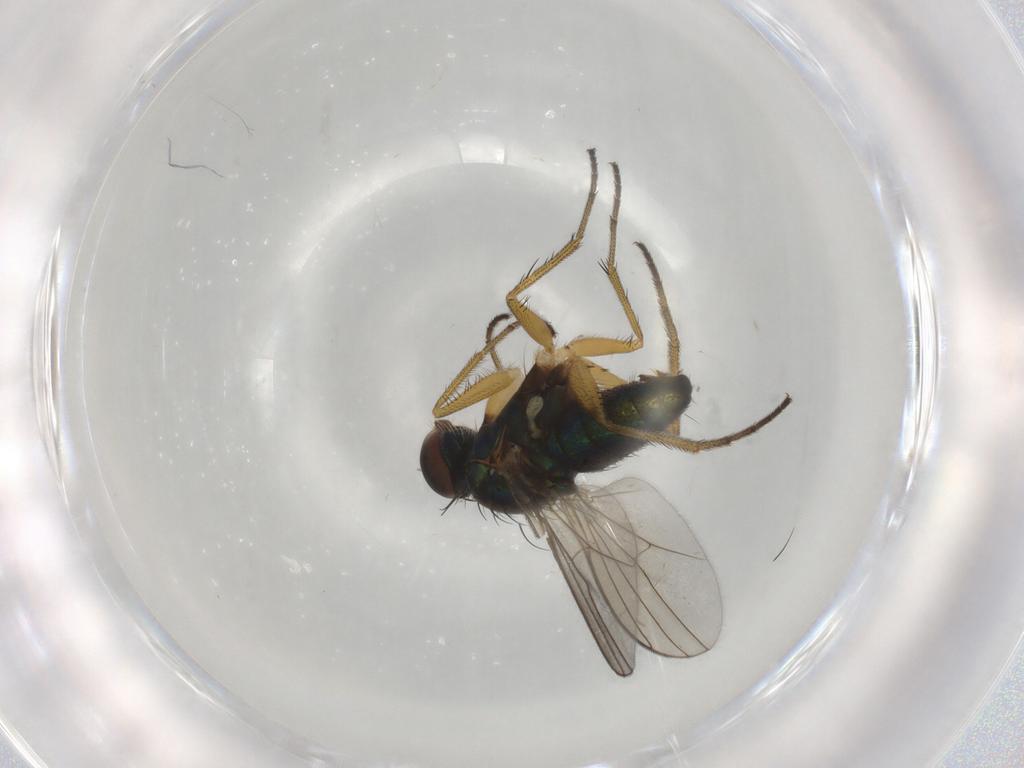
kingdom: Animalia
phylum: Arthropoda
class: Insecta
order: Diptera
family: Dolichopodidae
